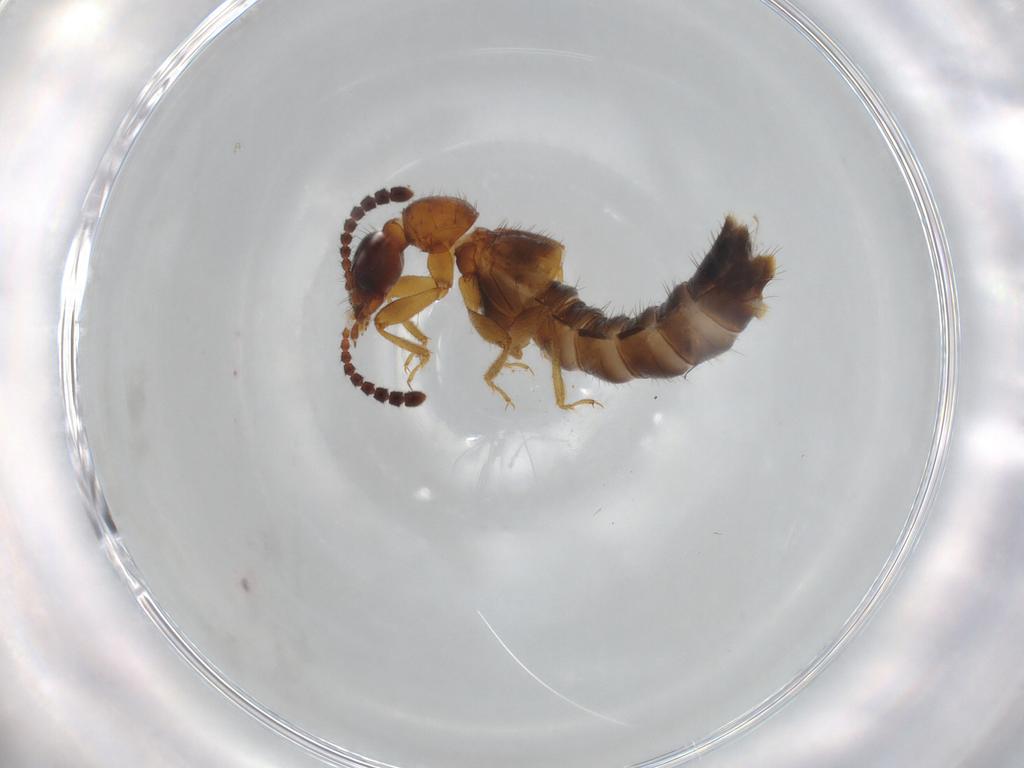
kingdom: Animalia
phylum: Arthropoda
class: Insecta
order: Coleoptera
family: Staphylinidae
